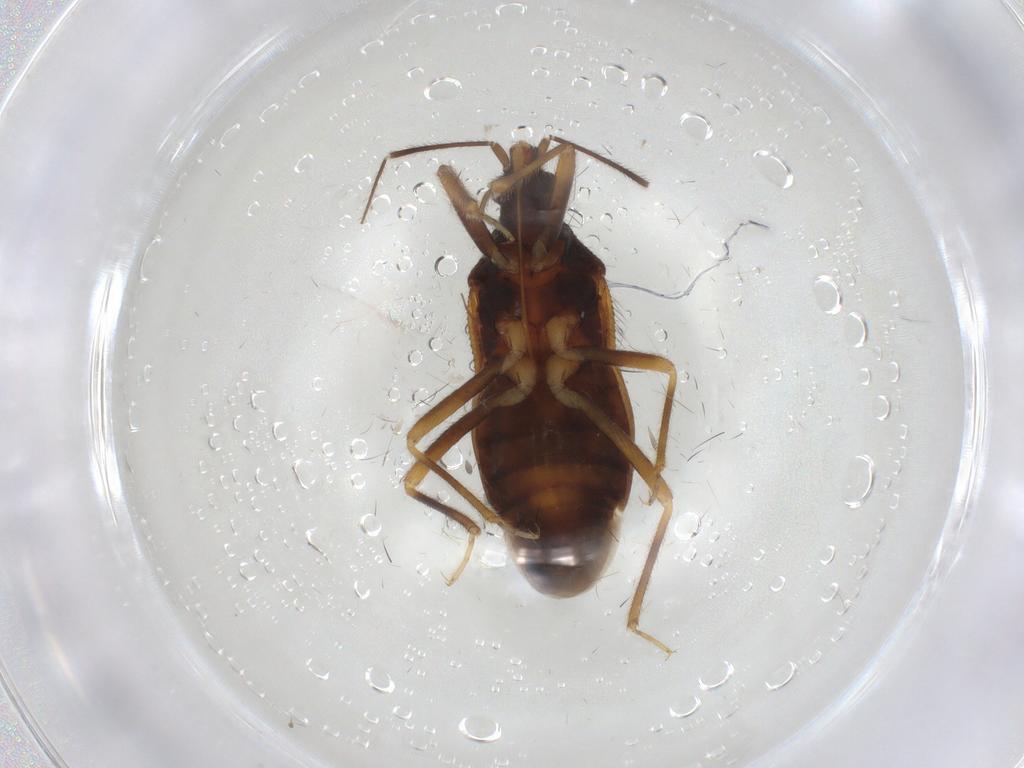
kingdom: Animalia
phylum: Arthropoda
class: Insecta
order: Hemiptera
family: Anthocoridae
